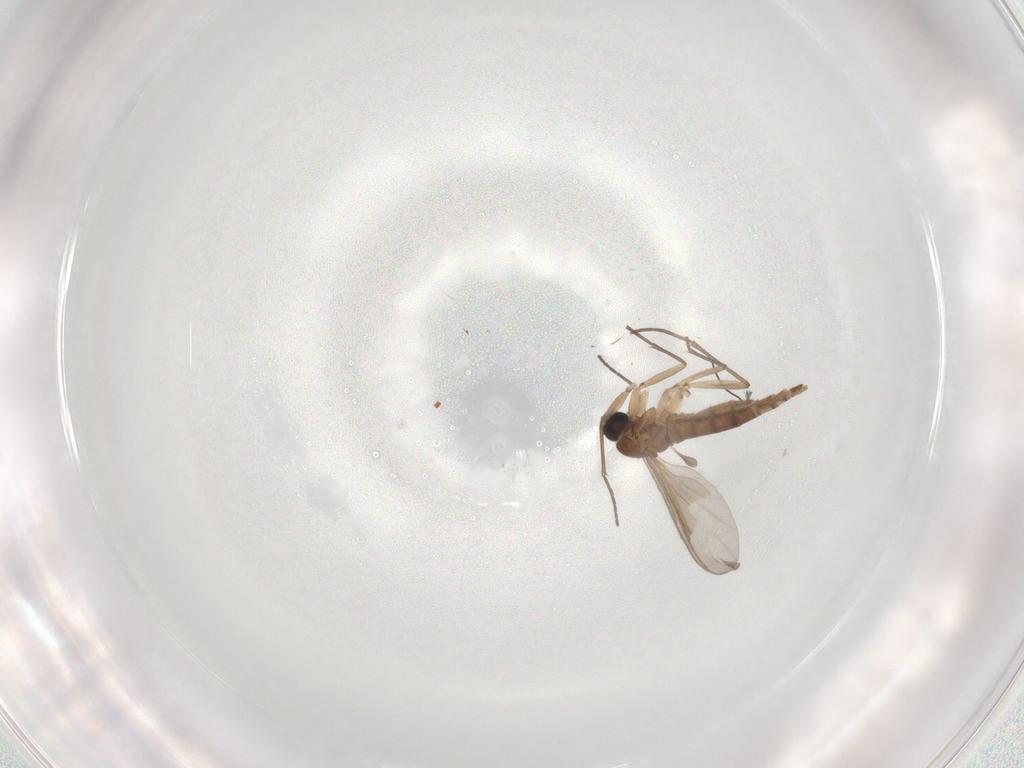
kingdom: Animalia
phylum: Arthropoda
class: Insecta
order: Diptera
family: Sciaridae
